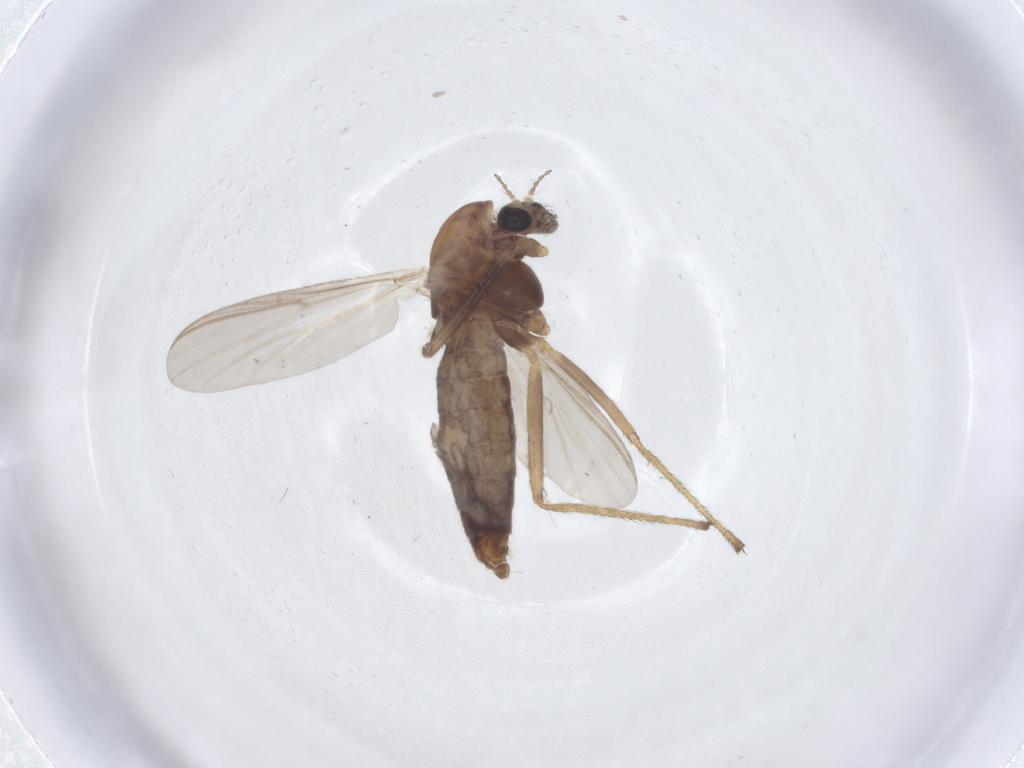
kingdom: Animalia
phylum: Arthropoda
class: Insecta
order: Diptera
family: Chironomidae
